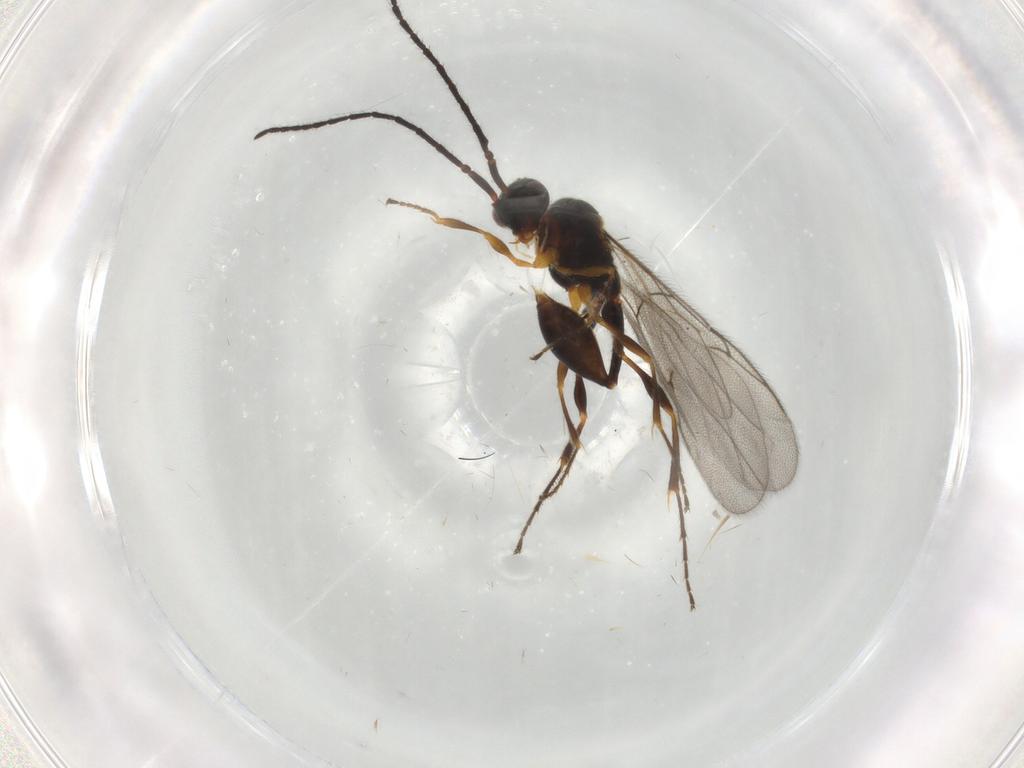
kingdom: Animalia
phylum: Arthropoda
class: Insecta
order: Hymenoptera
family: Diapriidae
